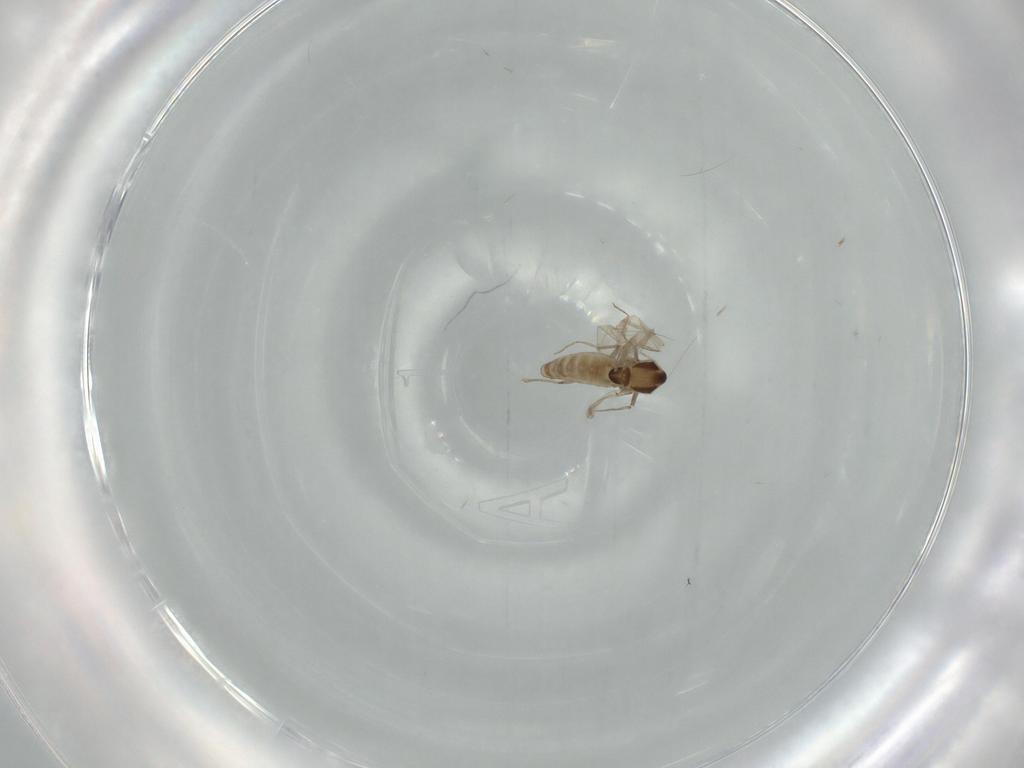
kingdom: Animalia
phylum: Arthropoda
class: Insecta
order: Diptera
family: Chironomidae
